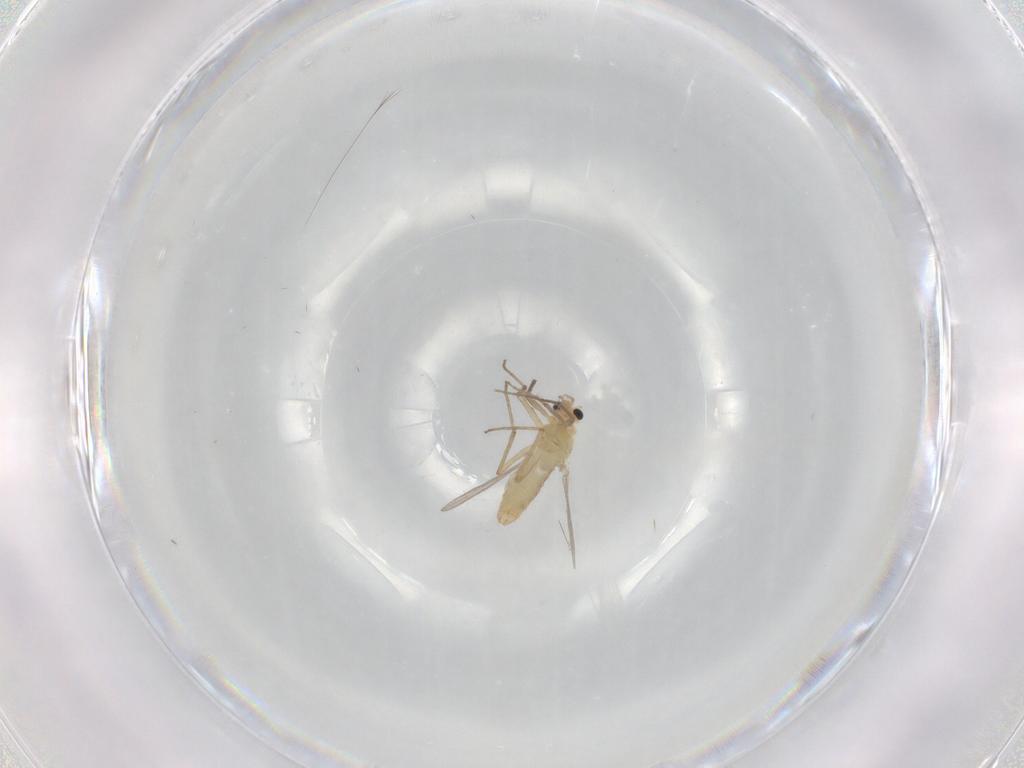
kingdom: Animalia
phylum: Arthropoda
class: Insecta
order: Diptera
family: Chironomidae
